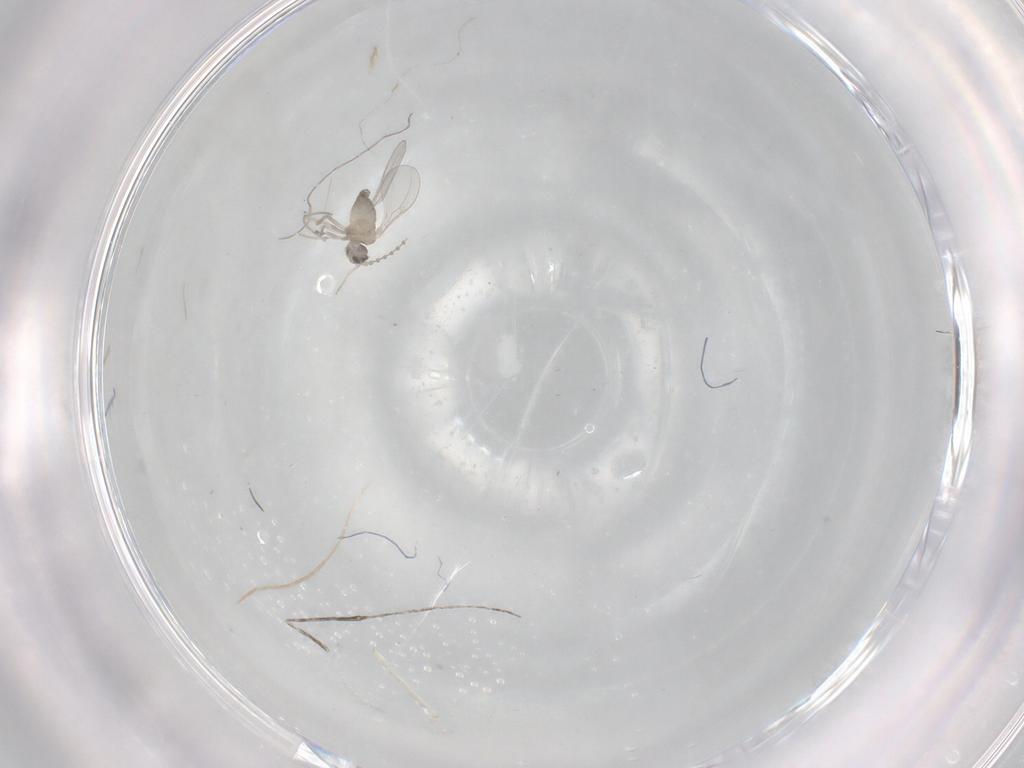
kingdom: Animalia
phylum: Arthropoda
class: Insecta
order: Diptera
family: Cecidomyiidae
